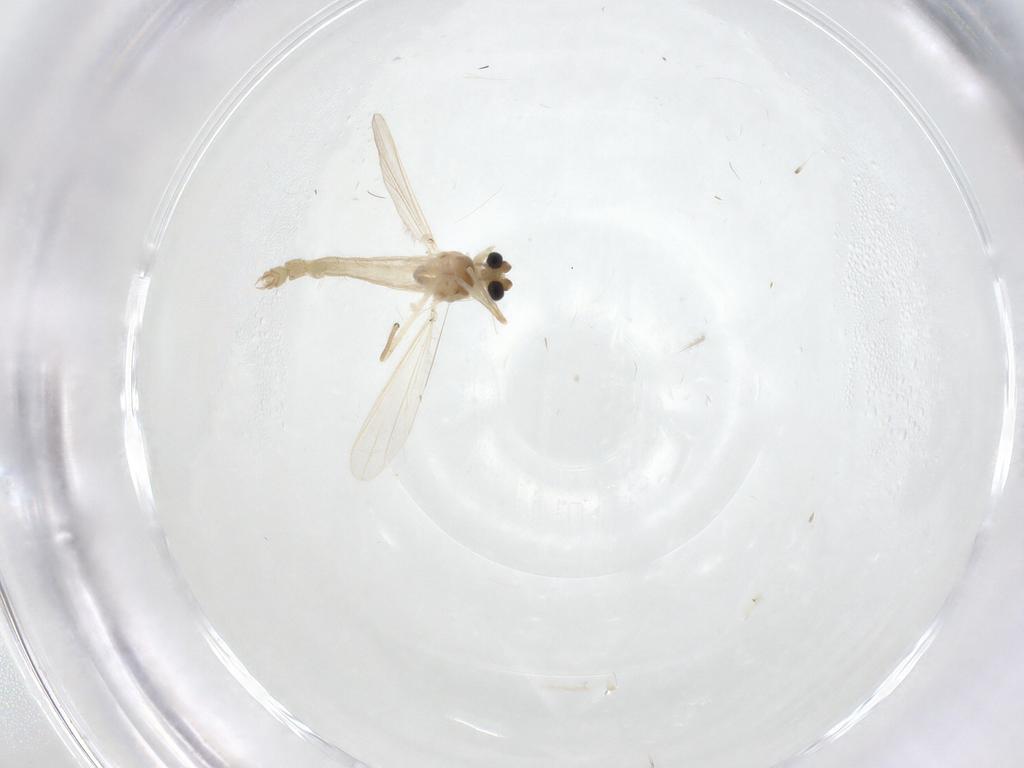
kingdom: Animalia
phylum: Arthropoda
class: Insecta
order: Diptera
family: Chironomidae
